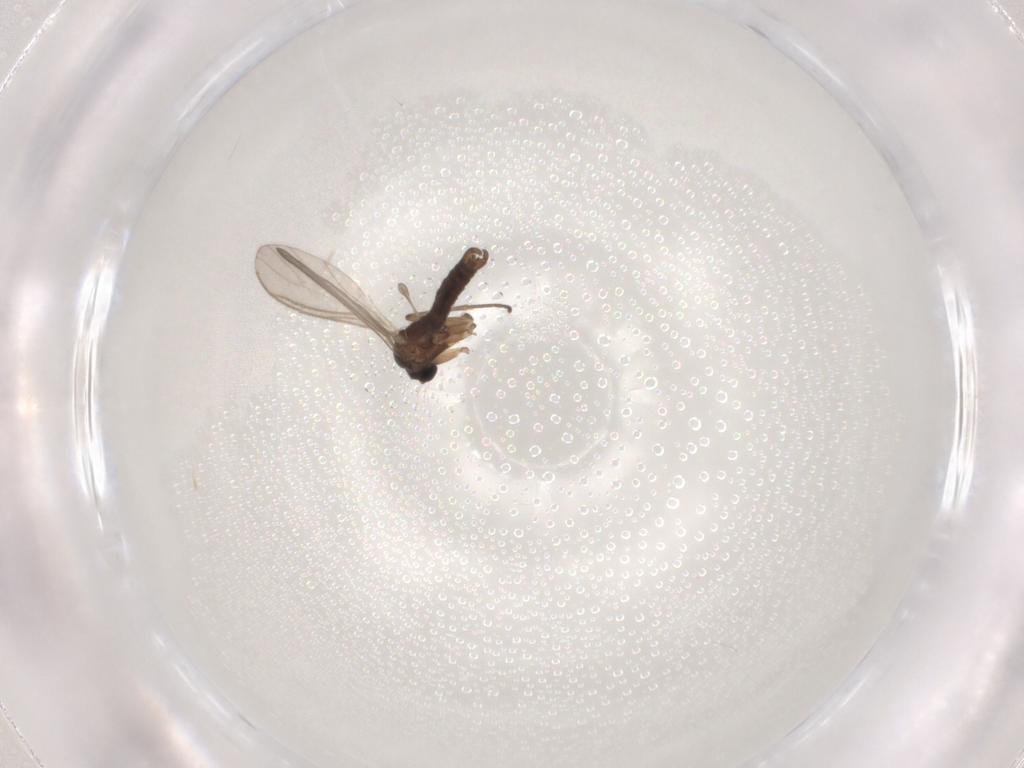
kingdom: Animalia
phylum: Arthropoda
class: Insecta
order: Diptera
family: Sciaridae
